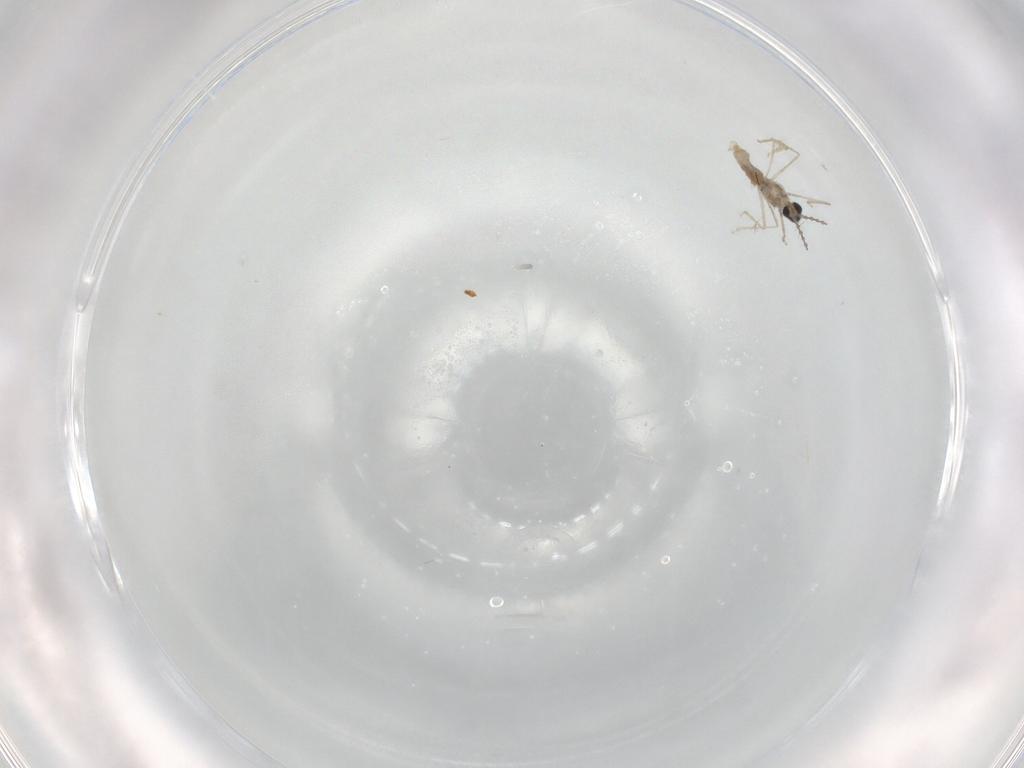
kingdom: Animalia
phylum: Arthropoda
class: Insecta
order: Diptera
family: Cecidomyiidae
